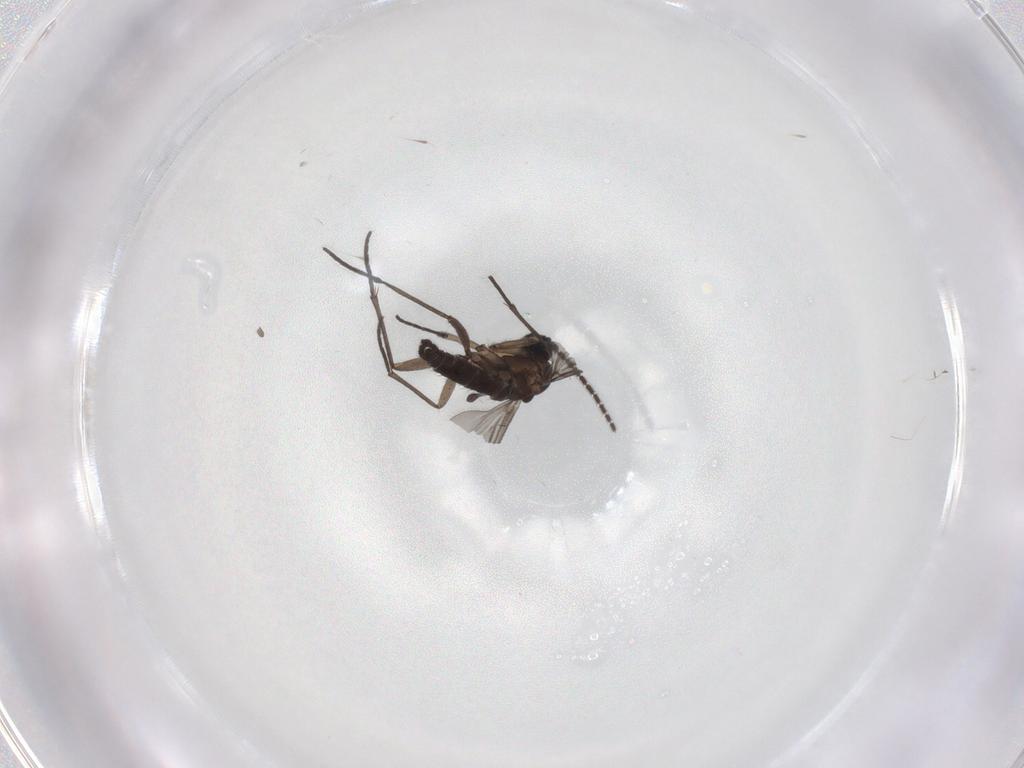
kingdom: Animalia
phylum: Arthropoda
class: Insecta
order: Diptera
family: Sciaridae
